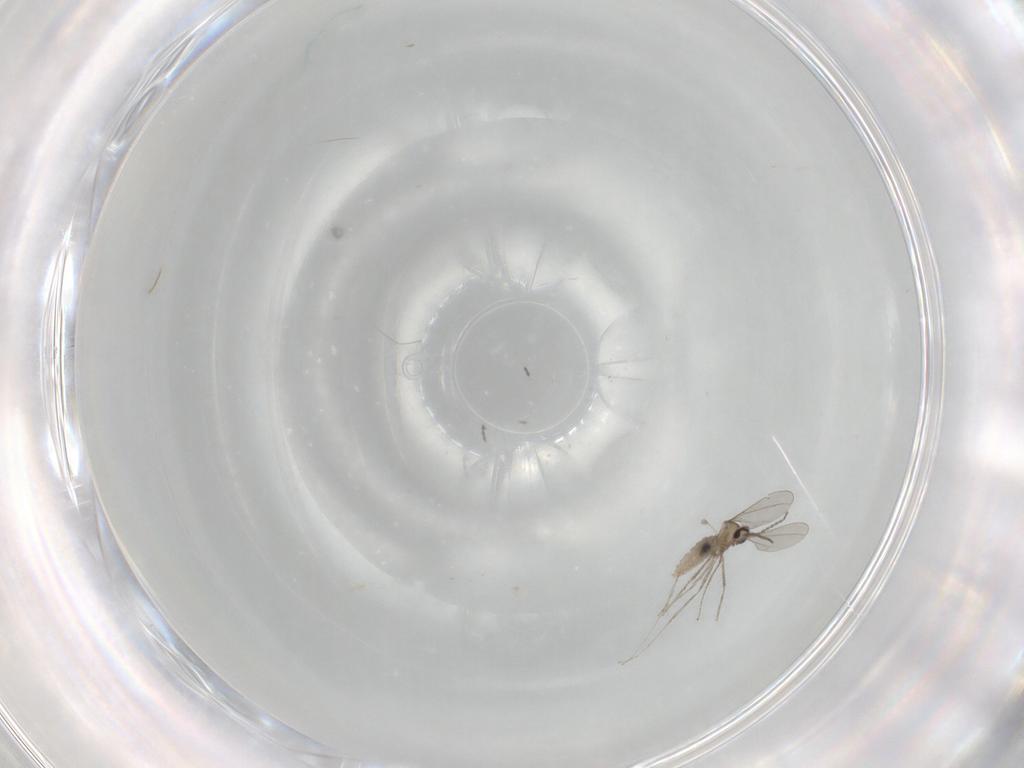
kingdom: Animalia
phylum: Arthropoda
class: Insecta
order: Diptera
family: Cecidomyiidae
